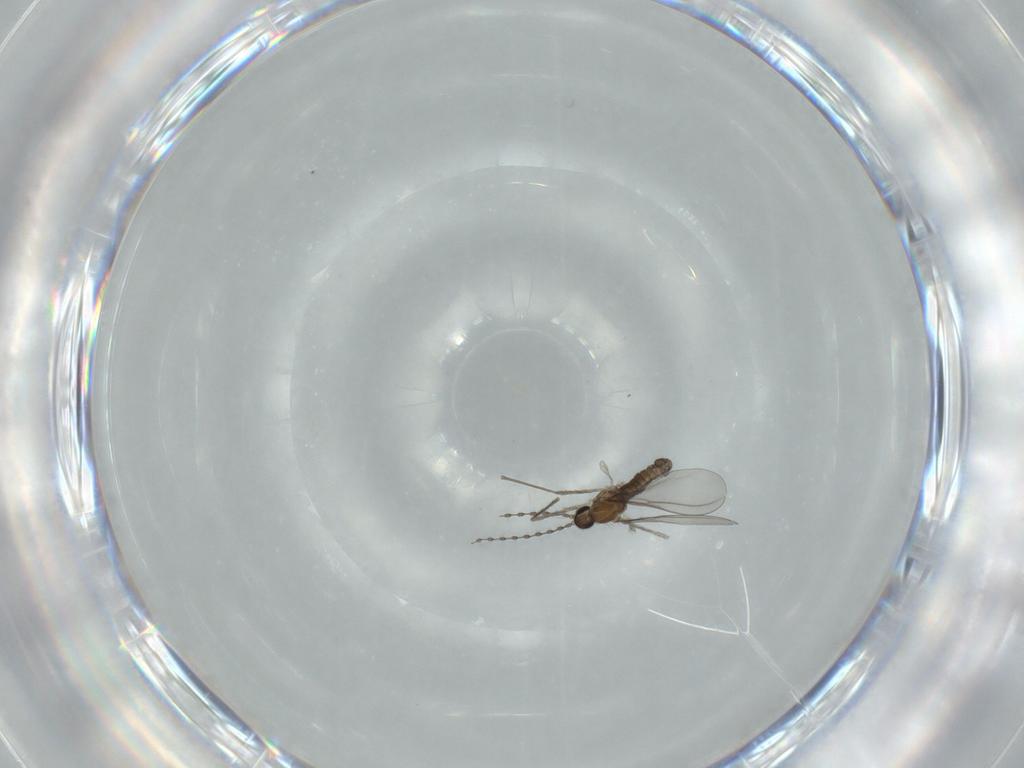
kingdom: Animalia
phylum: Arthropoda
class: Insecta
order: Diptera
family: Cecidomyiidae
